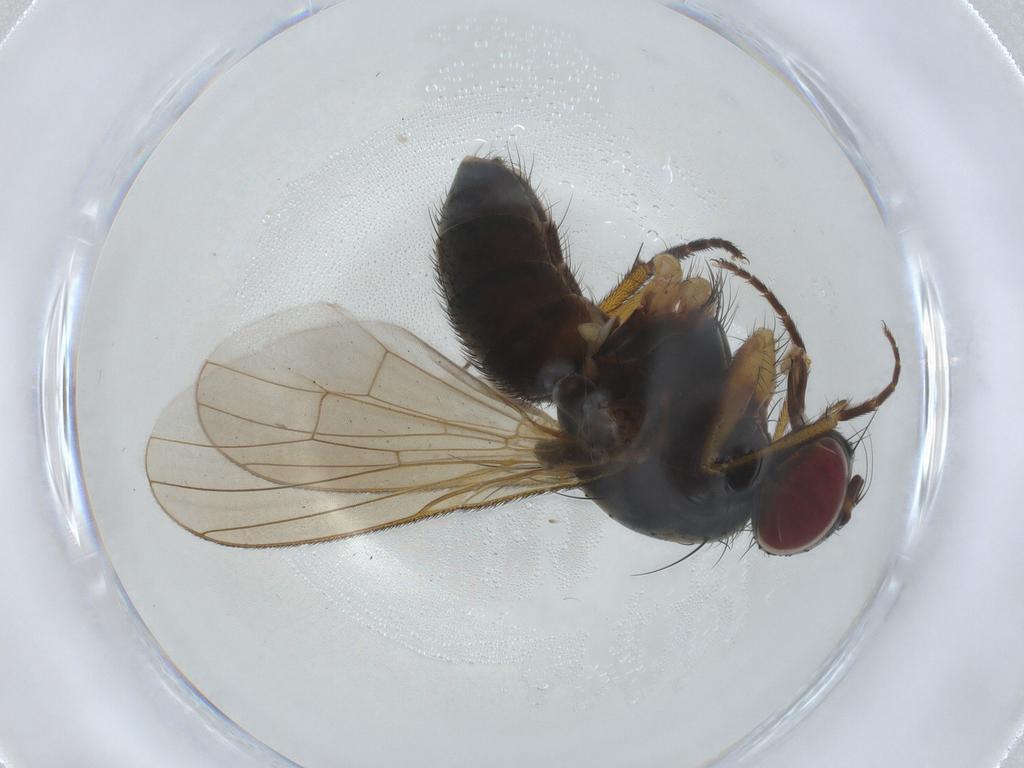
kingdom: Animalia
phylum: Arthropoda
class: Insecta
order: Diptera
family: Muscidae
